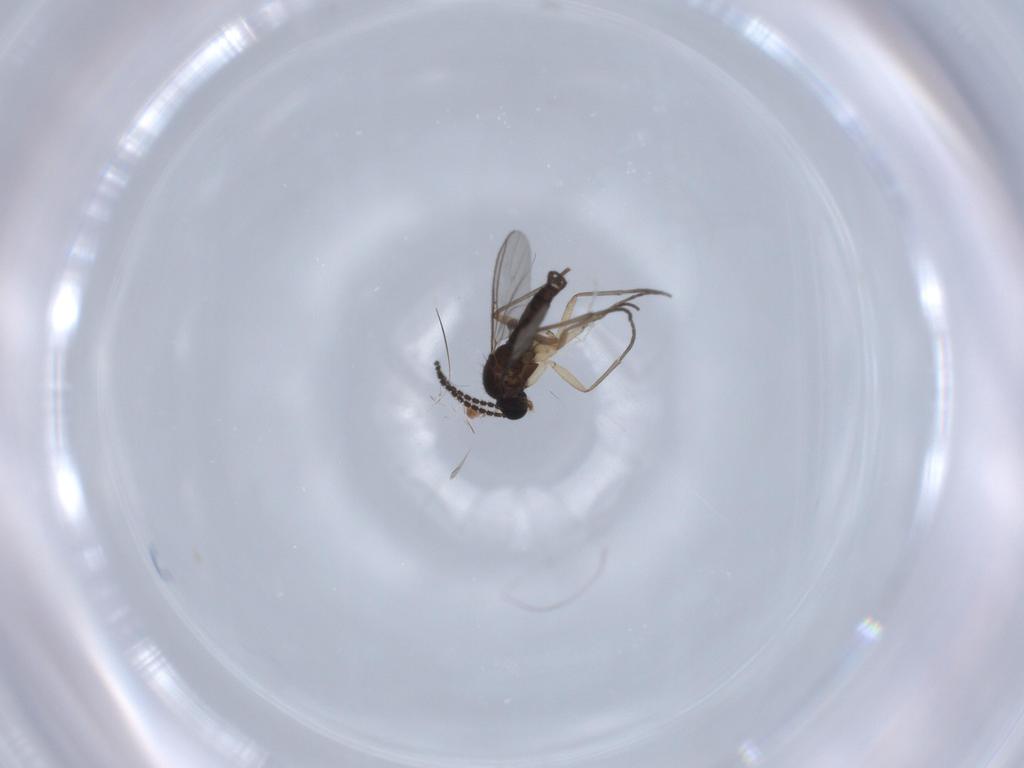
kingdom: Animalia
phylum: Arthropoda
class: Insecta
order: Diptera
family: Sciaridae
